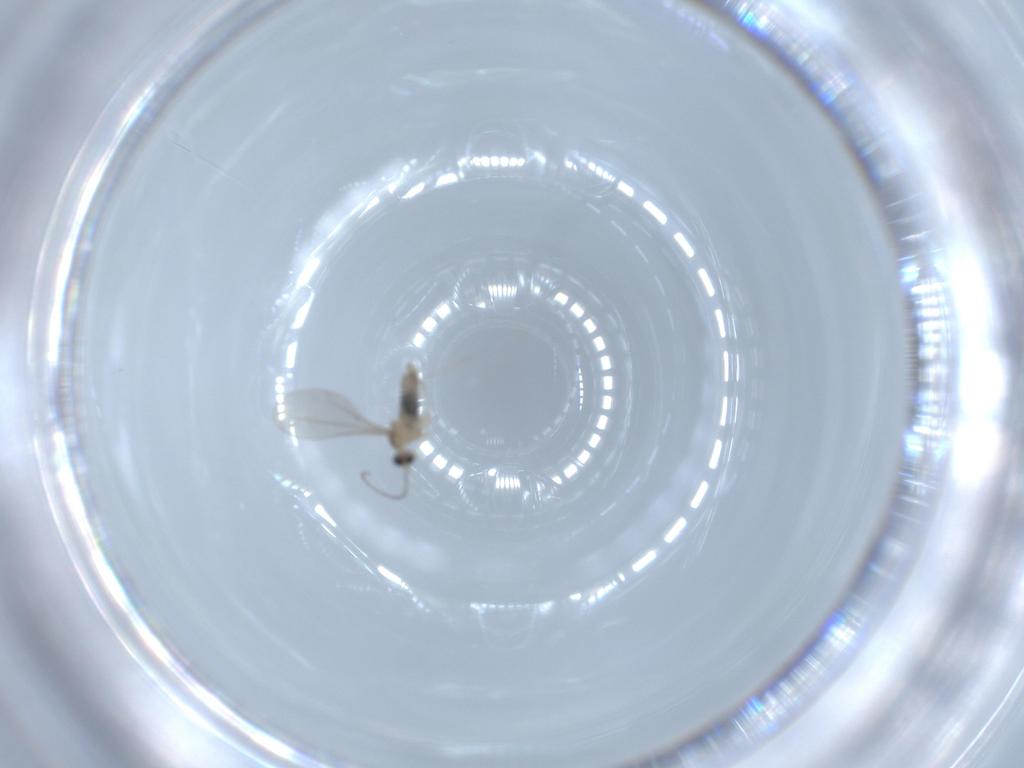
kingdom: Animalia
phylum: Arthropoda
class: Insecta
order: Diptera
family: Cecidomyiidae
